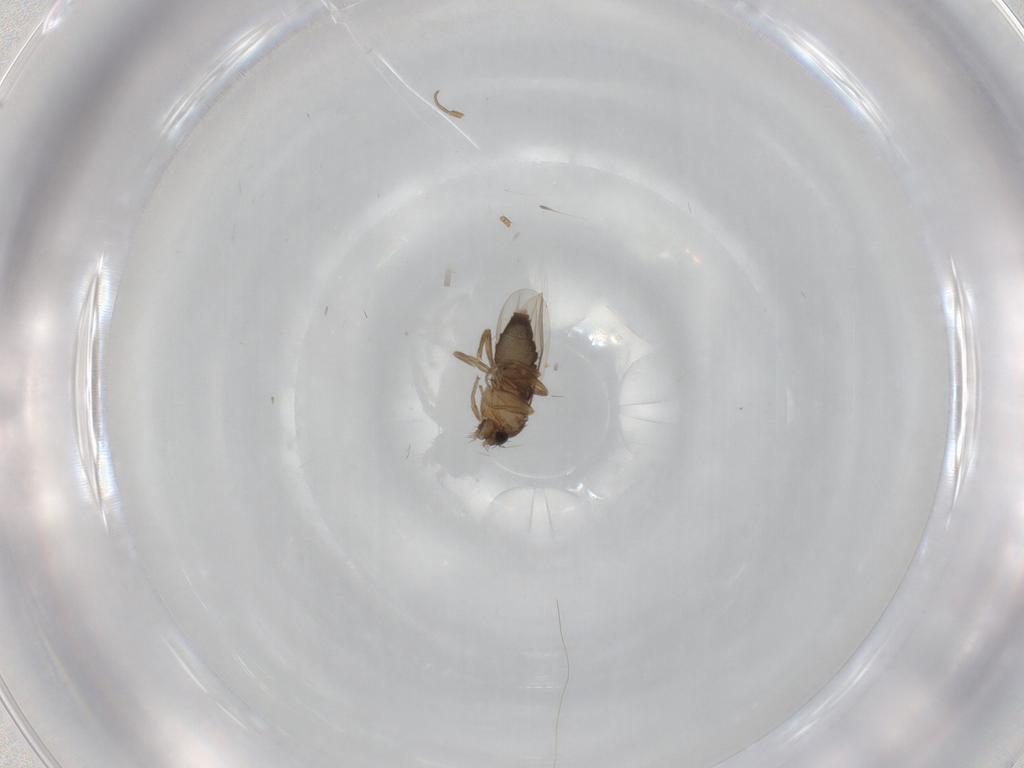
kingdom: Animalia
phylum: Arthropoda
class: Insecta
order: Diptera
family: Phoridae
